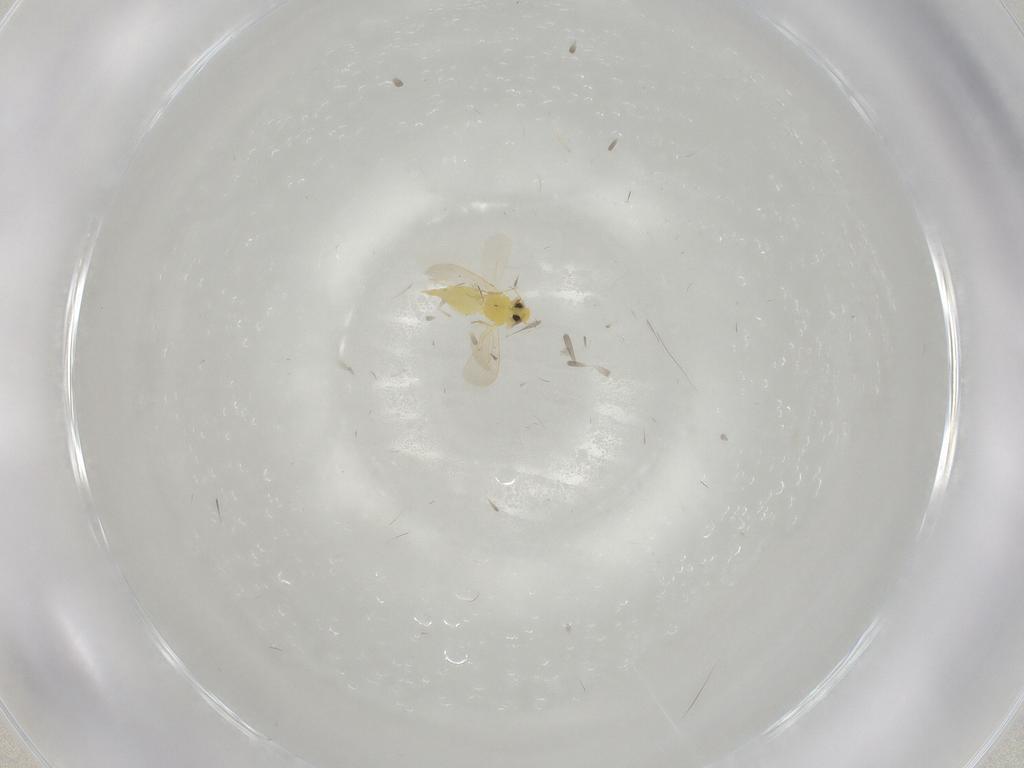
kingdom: Animalia
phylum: Arthropoda
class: Insecta
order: Hemiptera
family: Aleyrodidae
